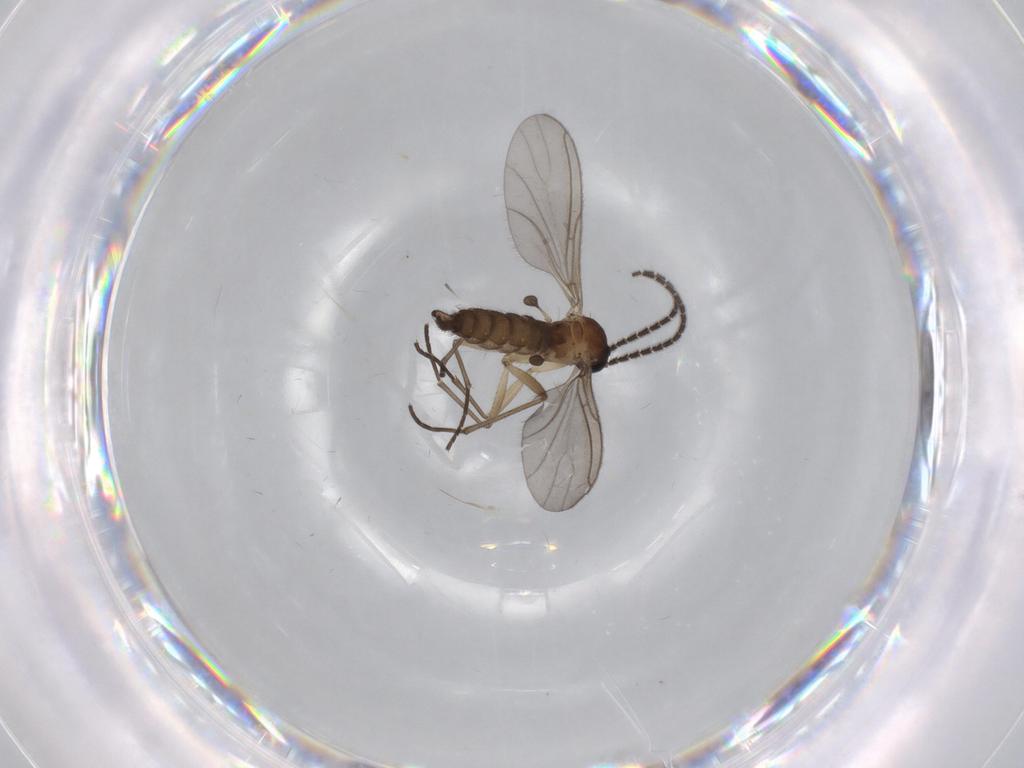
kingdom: Animalia
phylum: Arthropoda
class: Insecta
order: Diptera
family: Sciaridae
